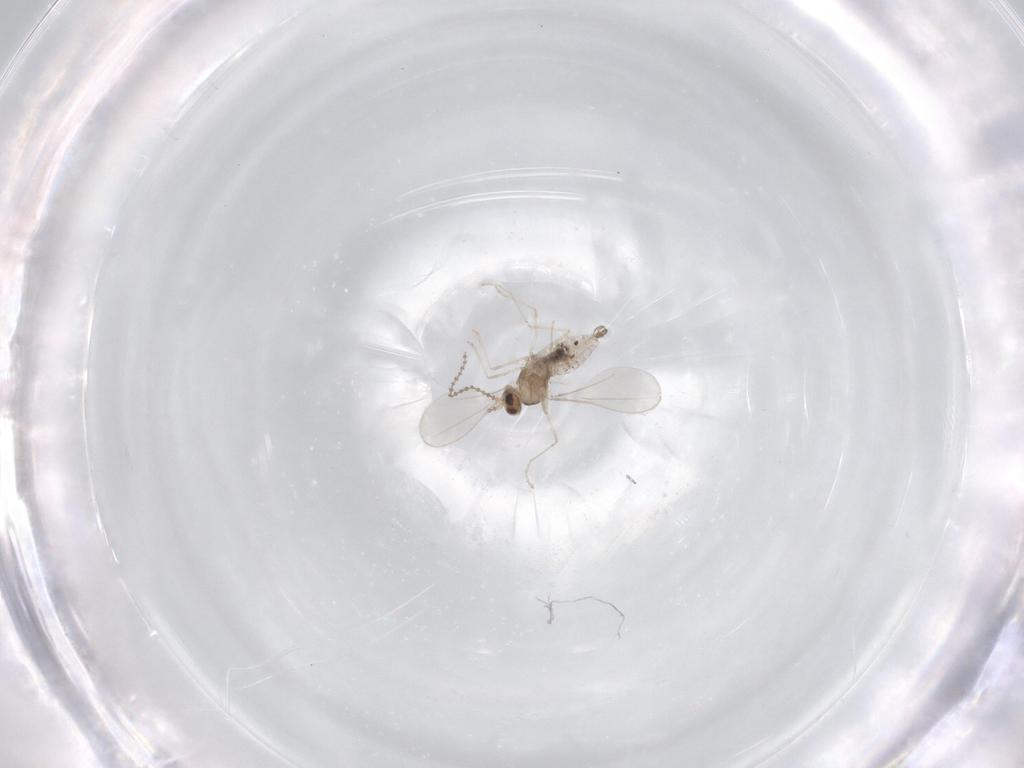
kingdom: Animalia
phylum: Arthropoda
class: Insecta
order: Diptera
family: Cecidomyiidae
